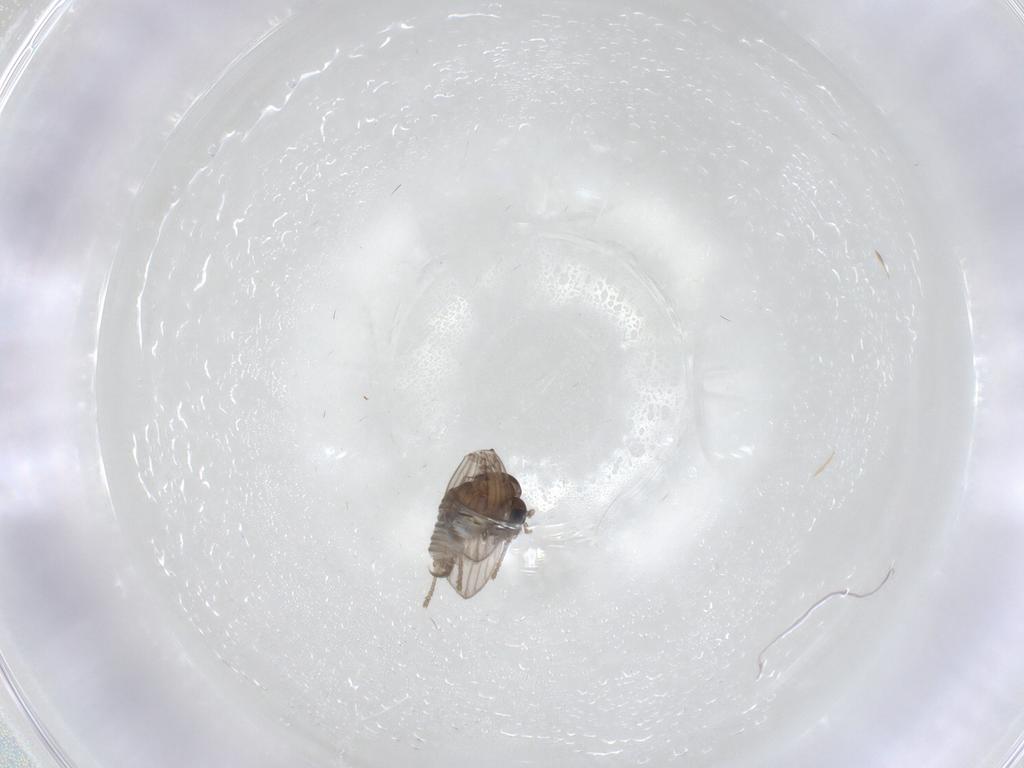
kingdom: Animalia
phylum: Arthropoda
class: Insecta
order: Diptera
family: Psychodidae
